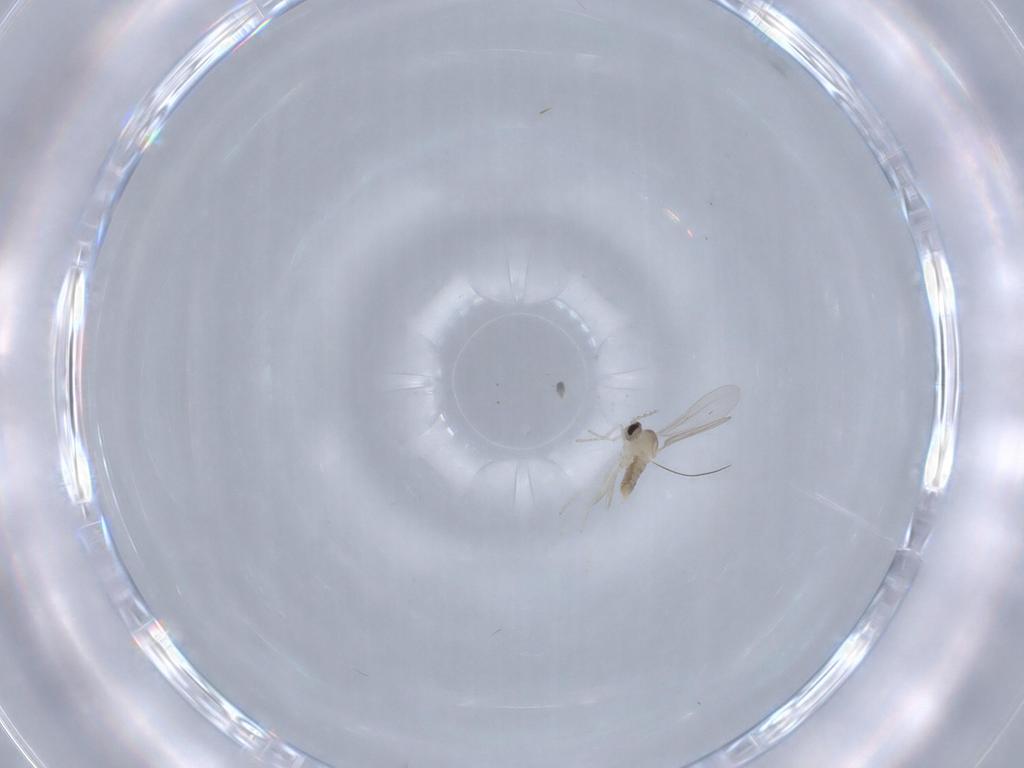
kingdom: Animalia
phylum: Arthropoda
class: Insecta
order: Diptera
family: Cecidomyiidae
